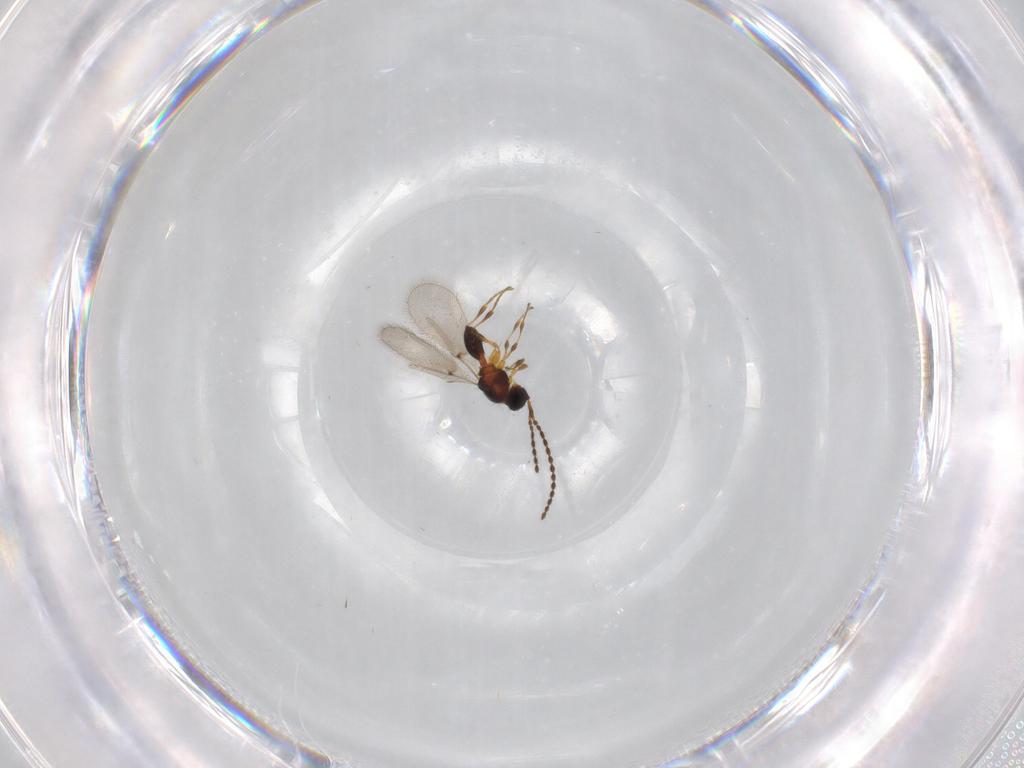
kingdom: Animalia
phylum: Arthropoda
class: Insecta
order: Hymenoptera
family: Diapriidae
